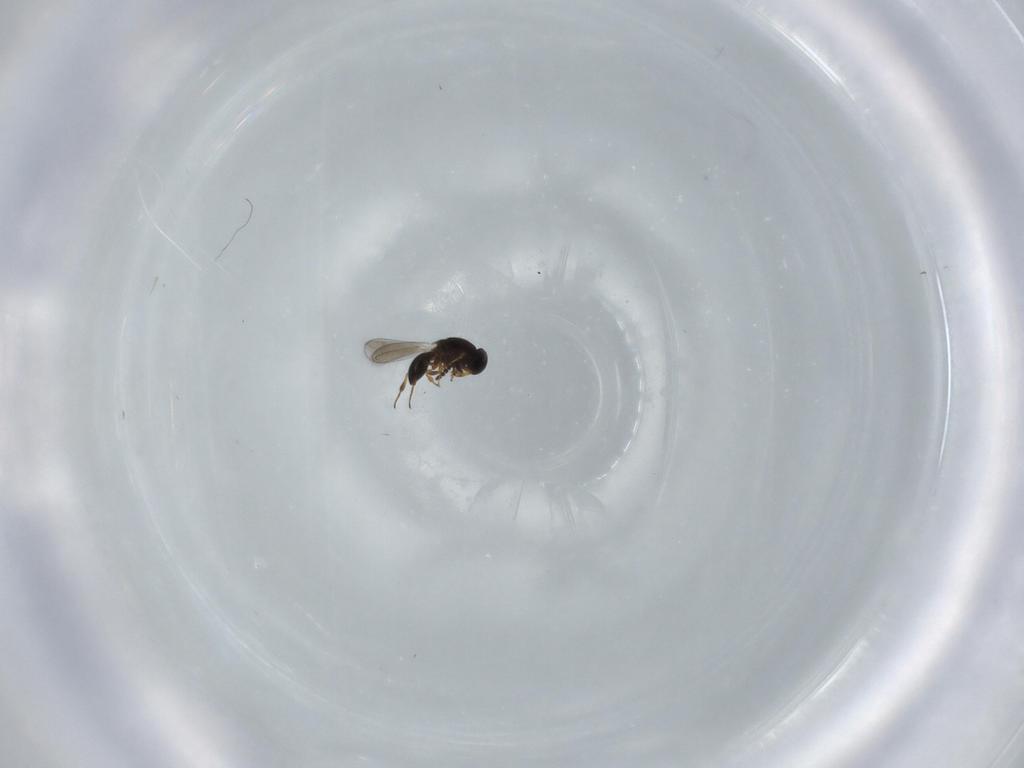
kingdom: Animalia
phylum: Arthropoda
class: Insecta
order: Hymenoptera
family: Platygastridae
